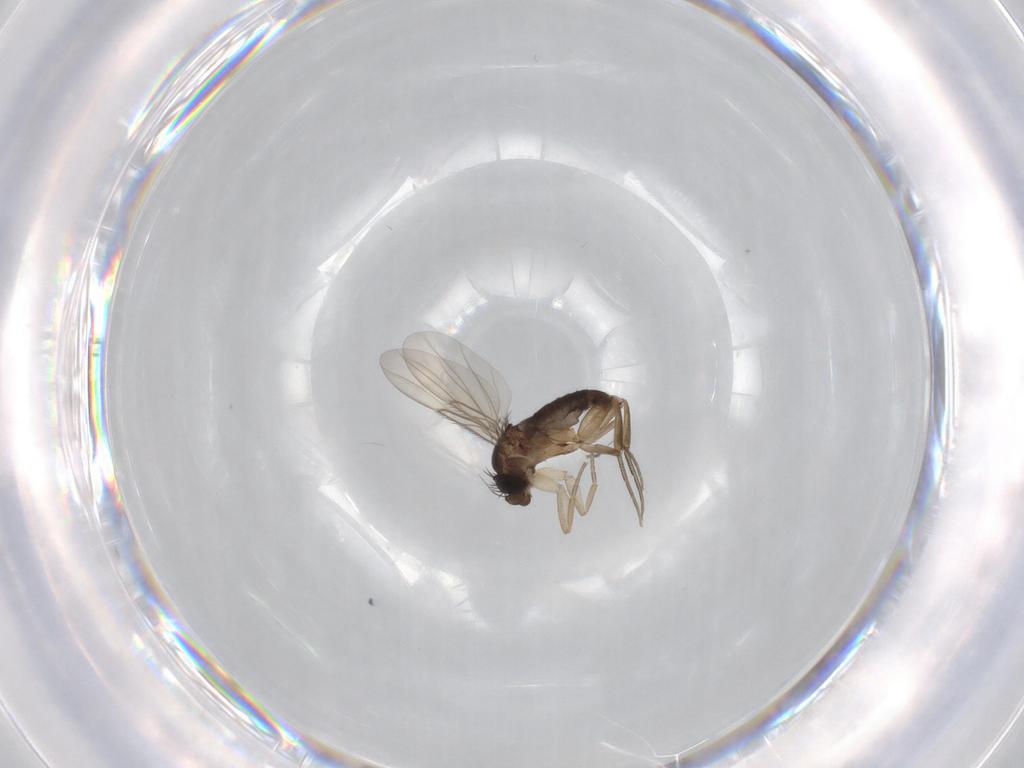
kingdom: Animalia
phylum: Arthropoda
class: Insecta
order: Diptera
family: Phoridae
